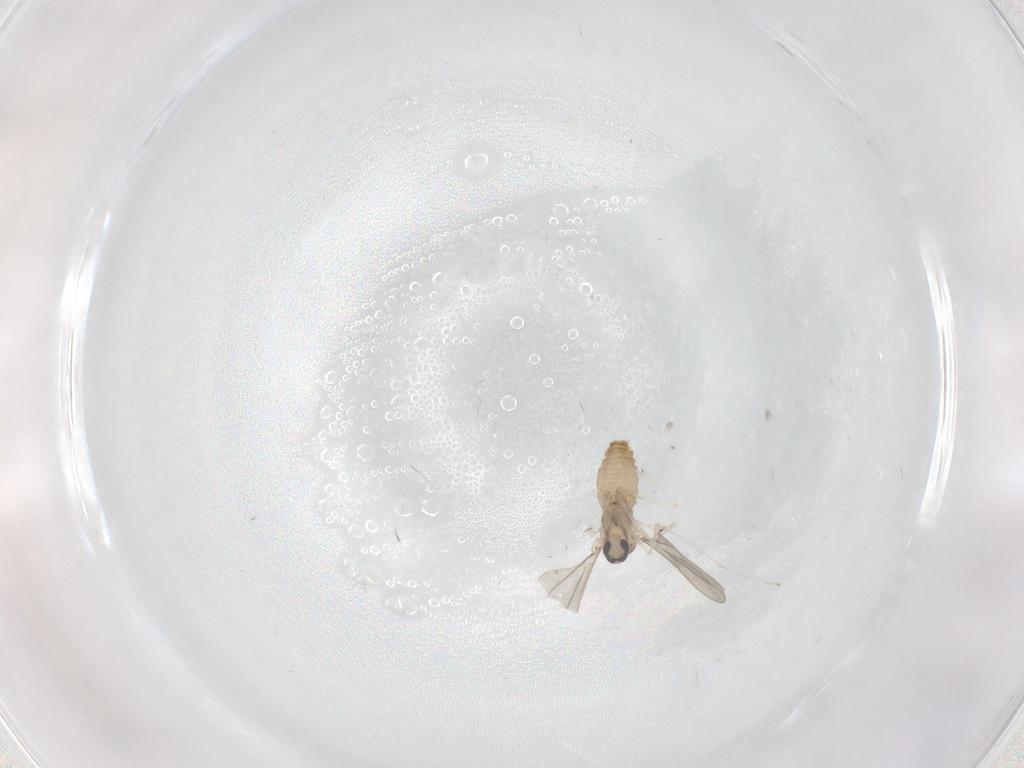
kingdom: Animalia
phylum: Arthropoda
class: Insecta
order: Diptera
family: Cecidomyiidae
